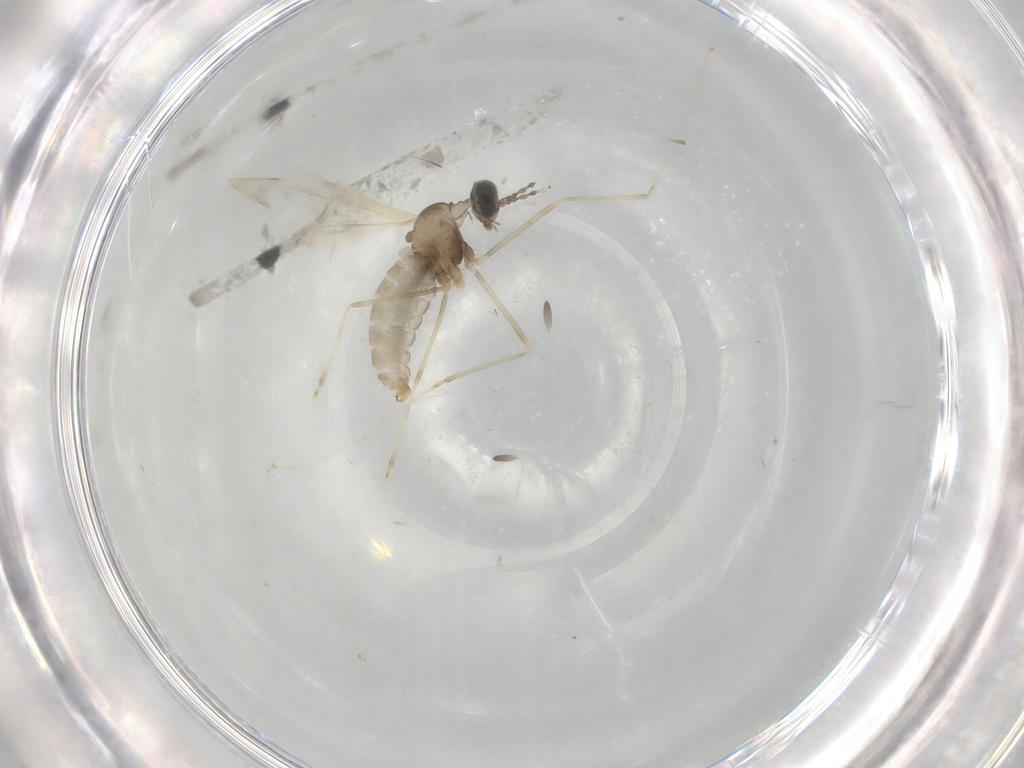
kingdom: Animalia
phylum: Arthropoda
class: Insecta
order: Diptera
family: Cecidomyiidae
